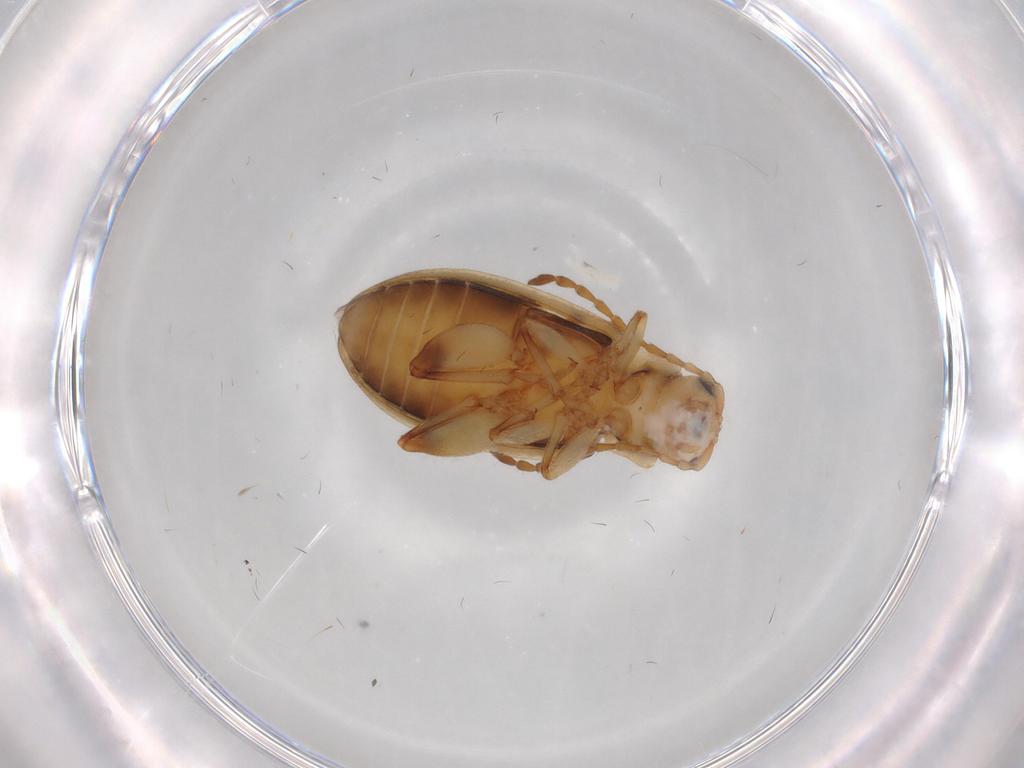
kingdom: Animalia
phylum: Arthropoda
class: Insecta
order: Coleoptera
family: Chrysomelidae
